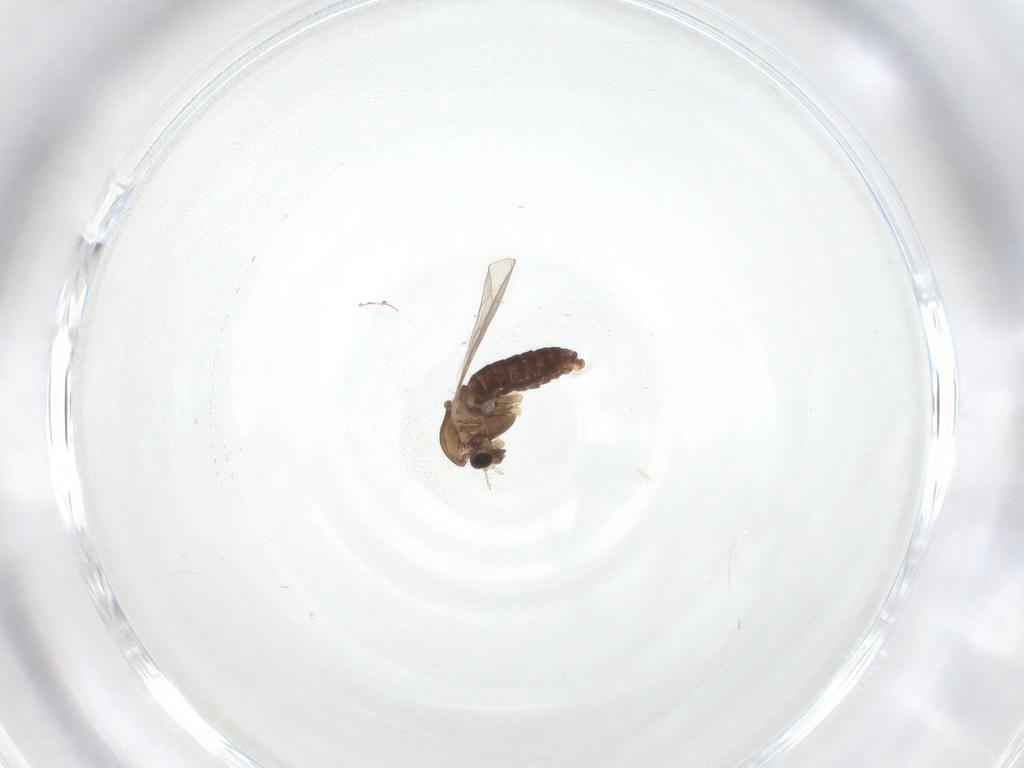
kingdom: Animalia
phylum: Arthropoda
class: Insecta
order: Diptera
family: Chironomidae
